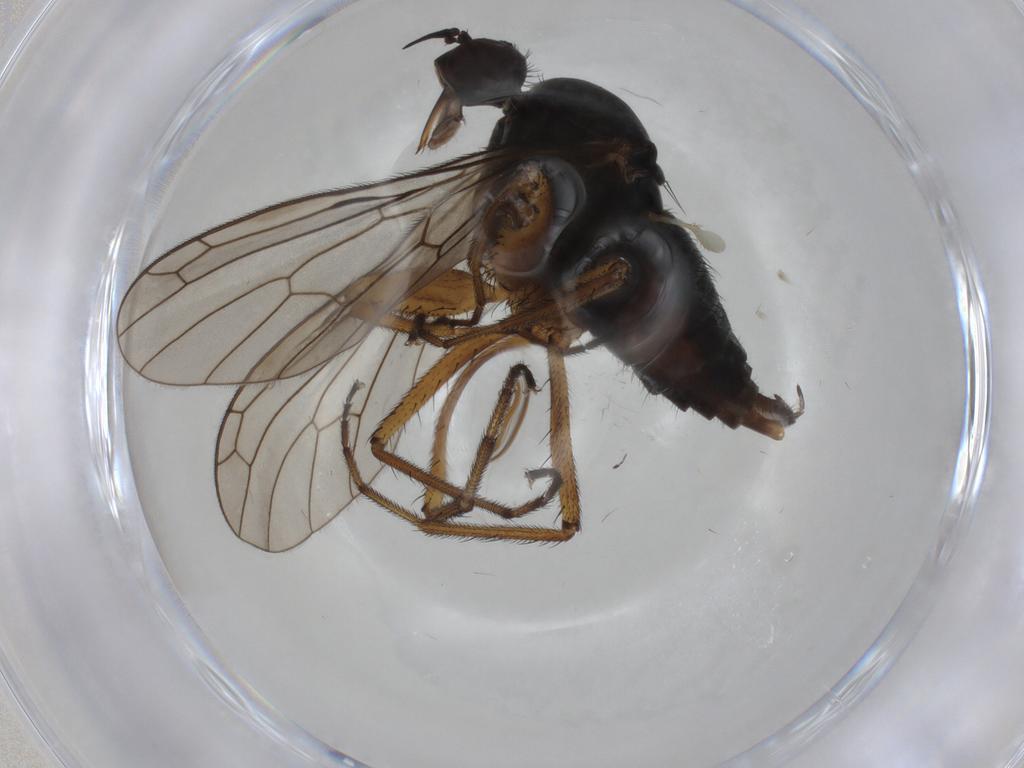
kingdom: Animalia
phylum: Arthropoda
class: Insecta
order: Diptera
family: Empididae
